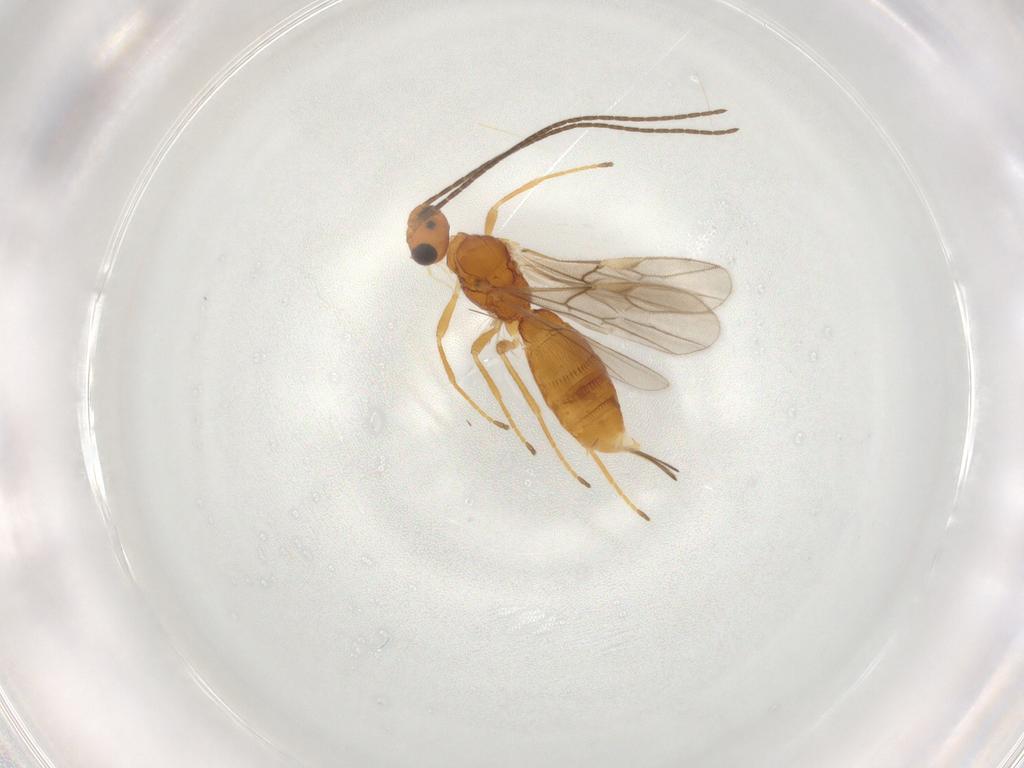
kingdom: Animalia
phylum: Arthropoda
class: Insecta
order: Hymenoptera
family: Braconidae
